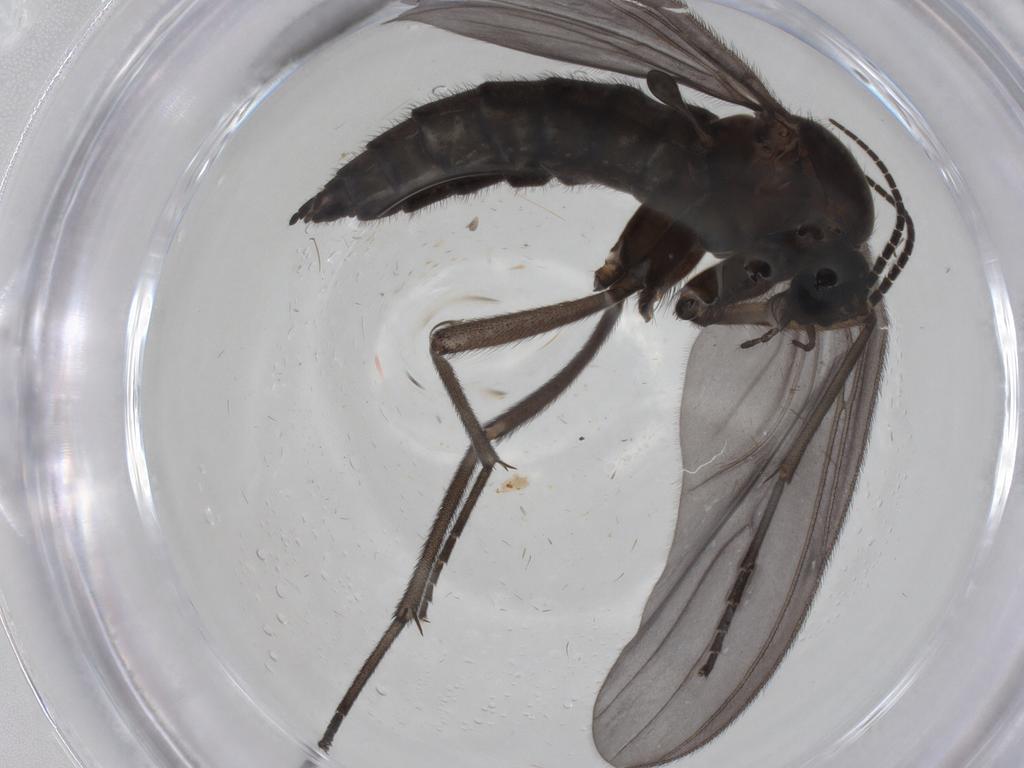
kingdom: Animalia
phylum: Arthropoda
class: Insecta
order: Diptera
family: Sciaridae
